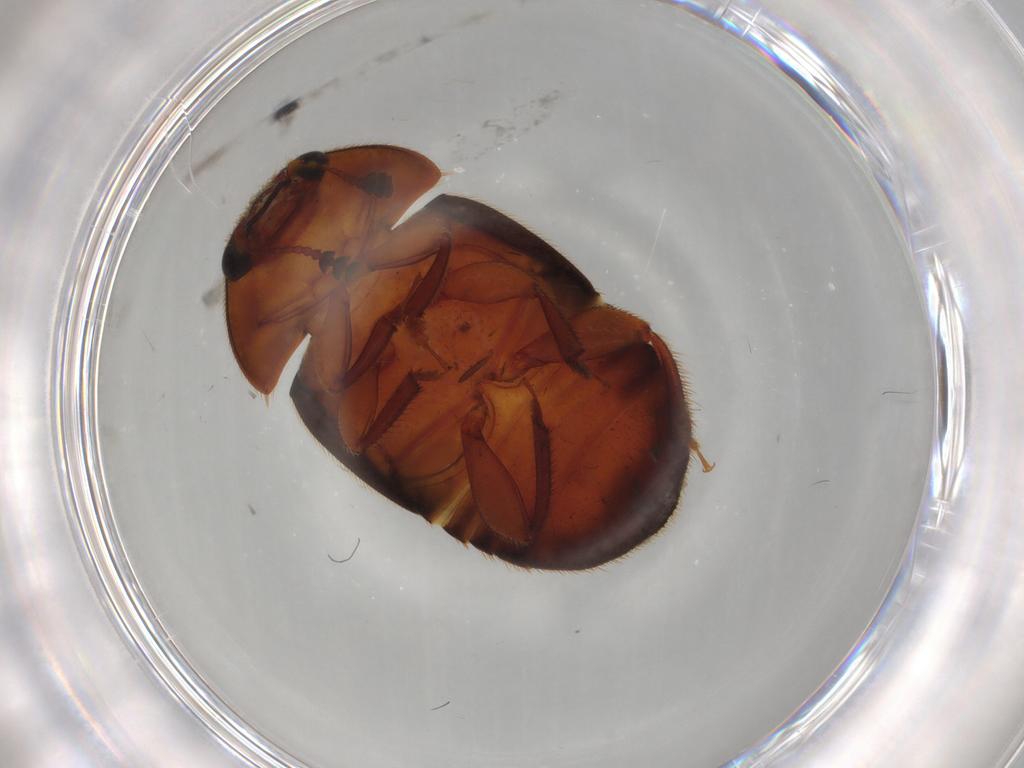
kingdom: Animalia
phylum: Arthropoda
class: Insecta
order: Coleoptera
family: Nitidulidae
